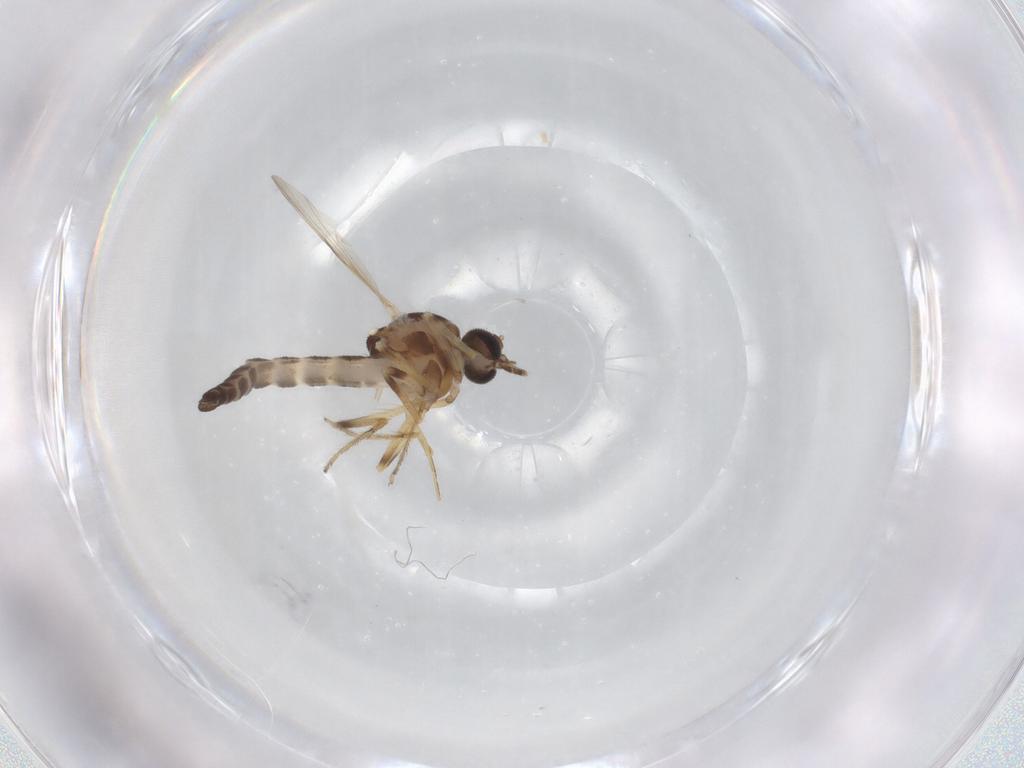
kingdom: Animalia
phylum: Arthropoda
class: Insecta
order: Diptera
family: Ceratopogonidae
